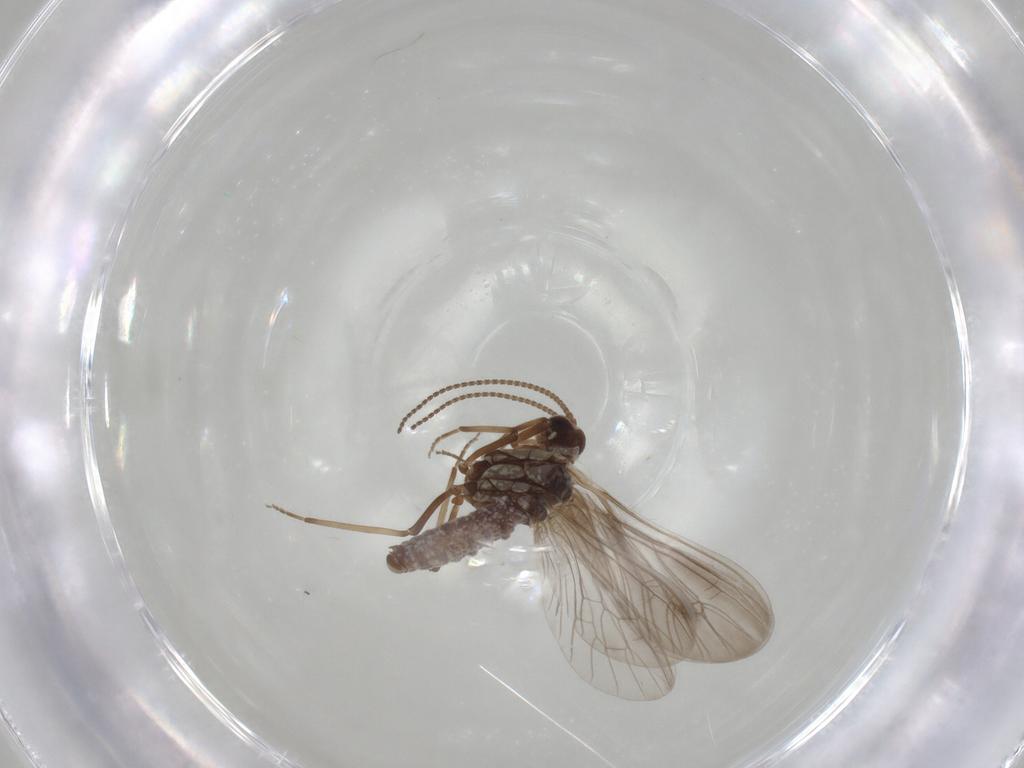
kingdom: Animalia
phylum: Arthropoda
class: Insecta
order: Neuroptera
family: Coniopterygidae
